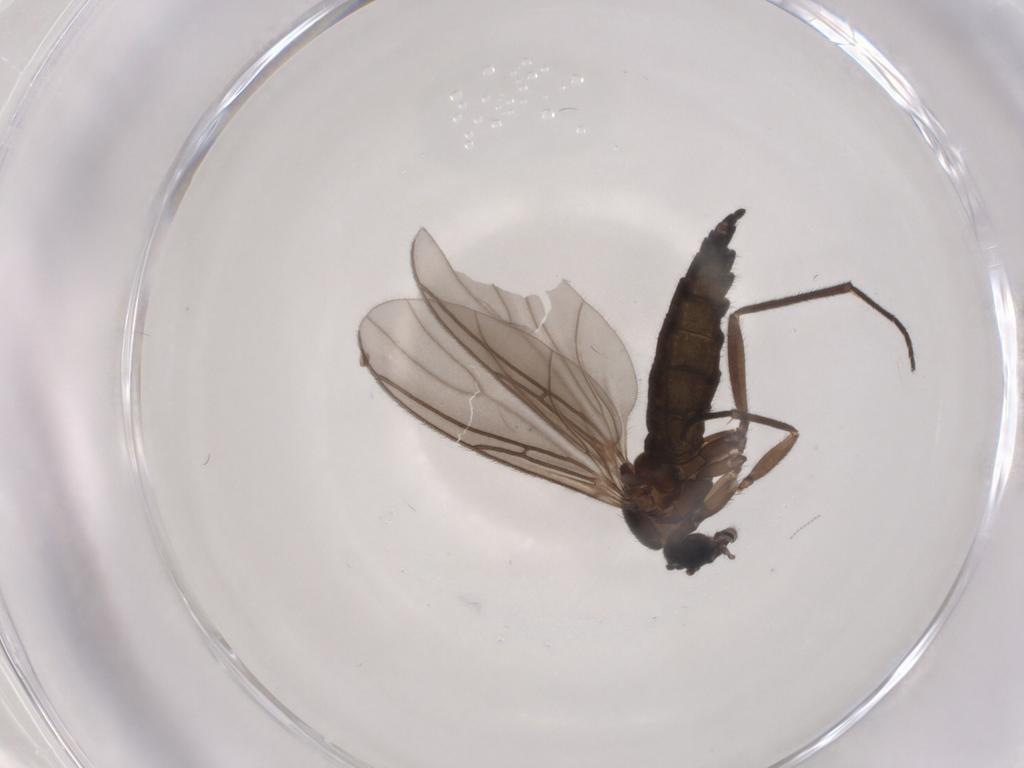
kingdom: Animalia
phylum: Arthropoda
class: Insecta
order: Diptera
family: Sciaridae
